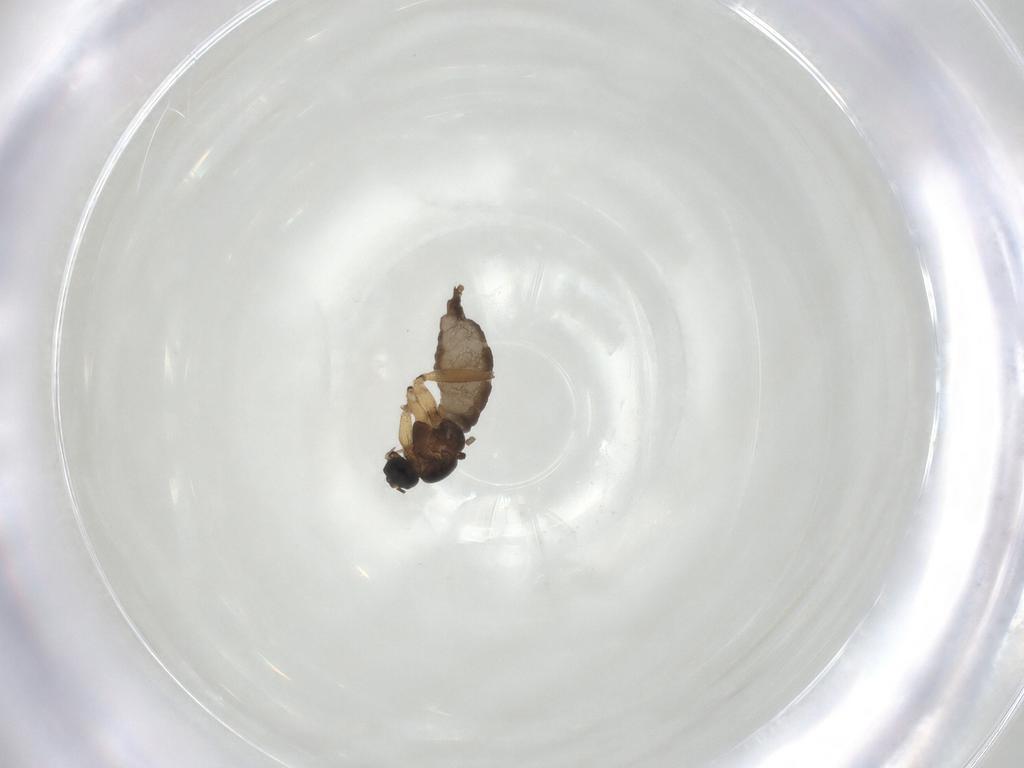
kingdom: Animalia
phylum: Arthropoda
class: Insecta
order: Diptera
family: Sciaridae
